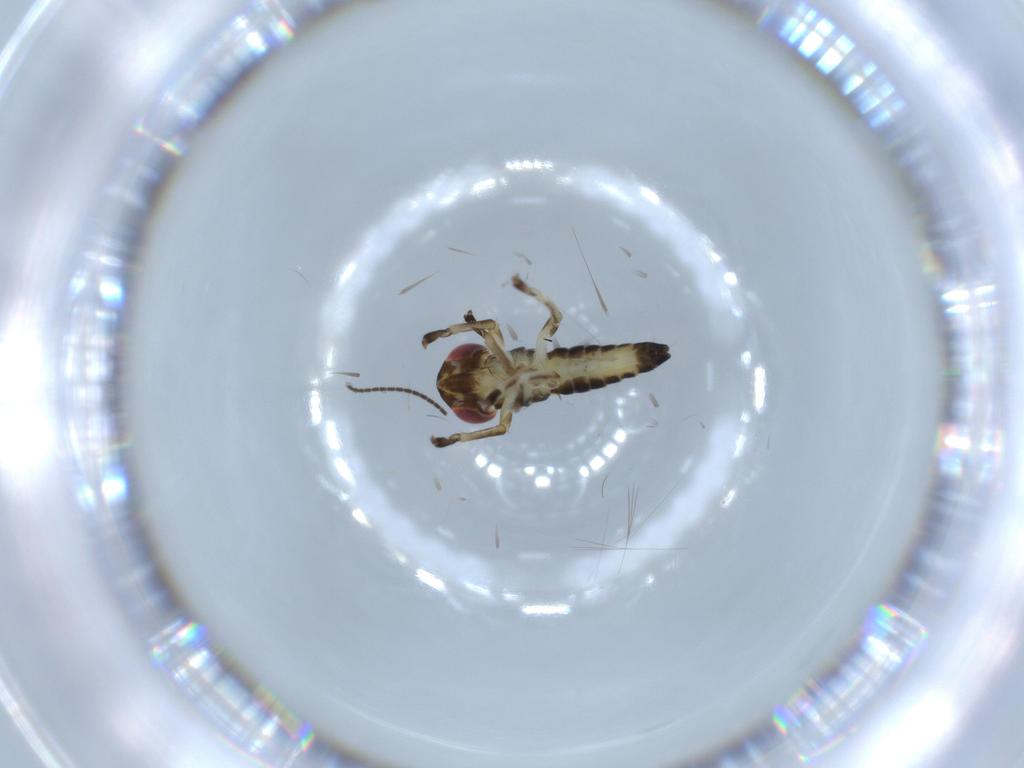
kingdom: Animalia
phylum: Arthropoda
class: Insecta
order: Hemiptera
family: Cicadellidae
